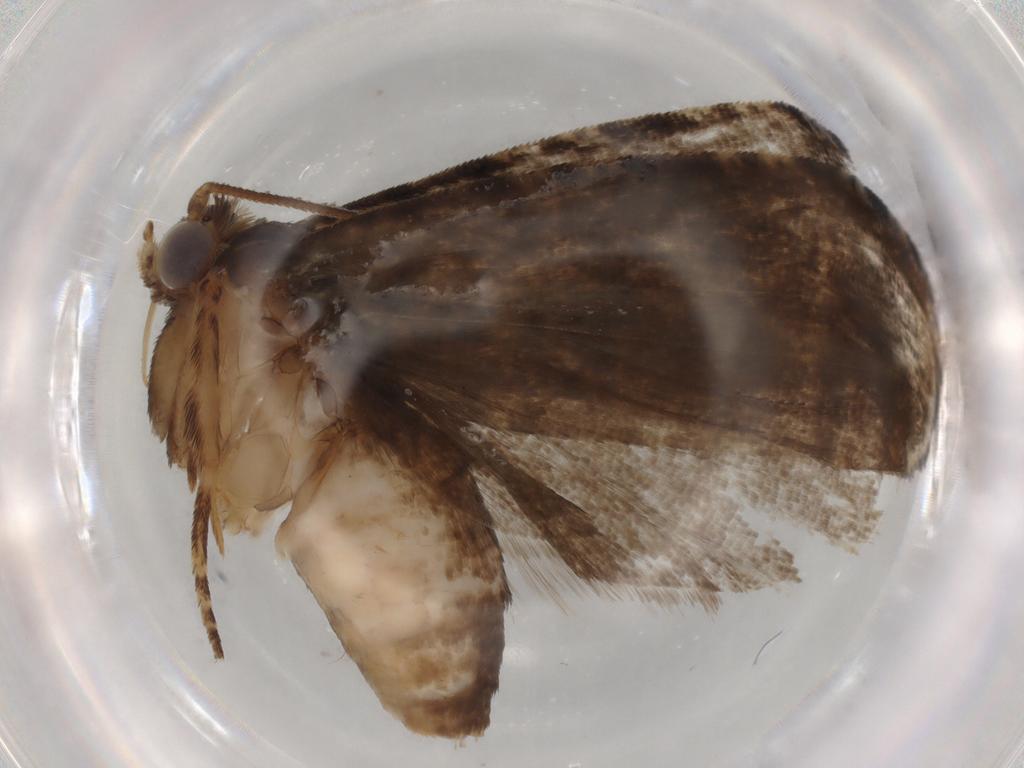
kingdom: Animalia
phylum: Arthropoda
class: Insecta
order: Lepidoptera
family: Tortricidae
